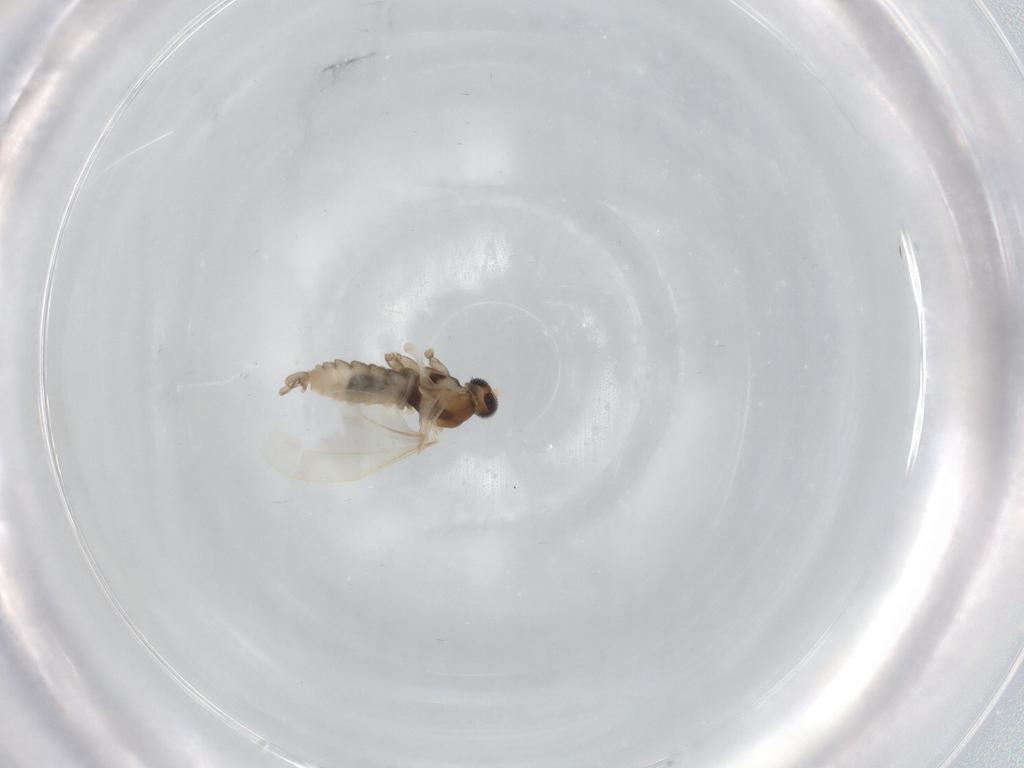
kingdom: Animalia
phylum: Arthropoda
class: Insecta
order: Diptera
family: Cecidomyiidae
